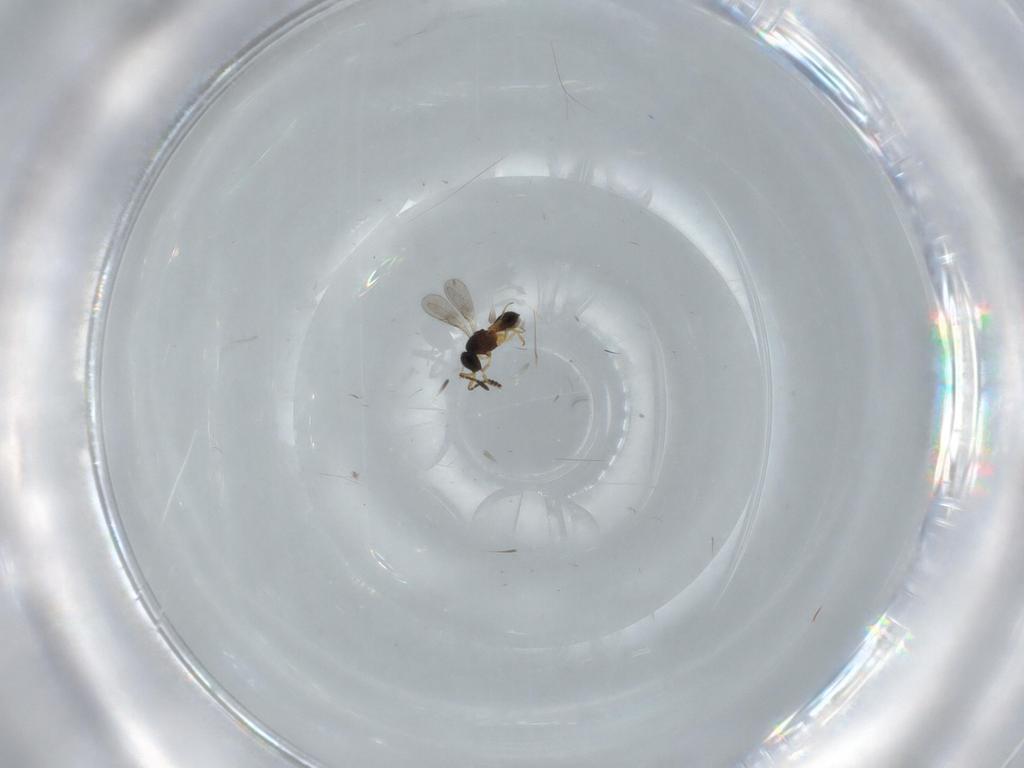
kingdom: Animalia
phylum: Arthropoda
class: Insecta
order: Hymenoptera
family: Scelionidae
